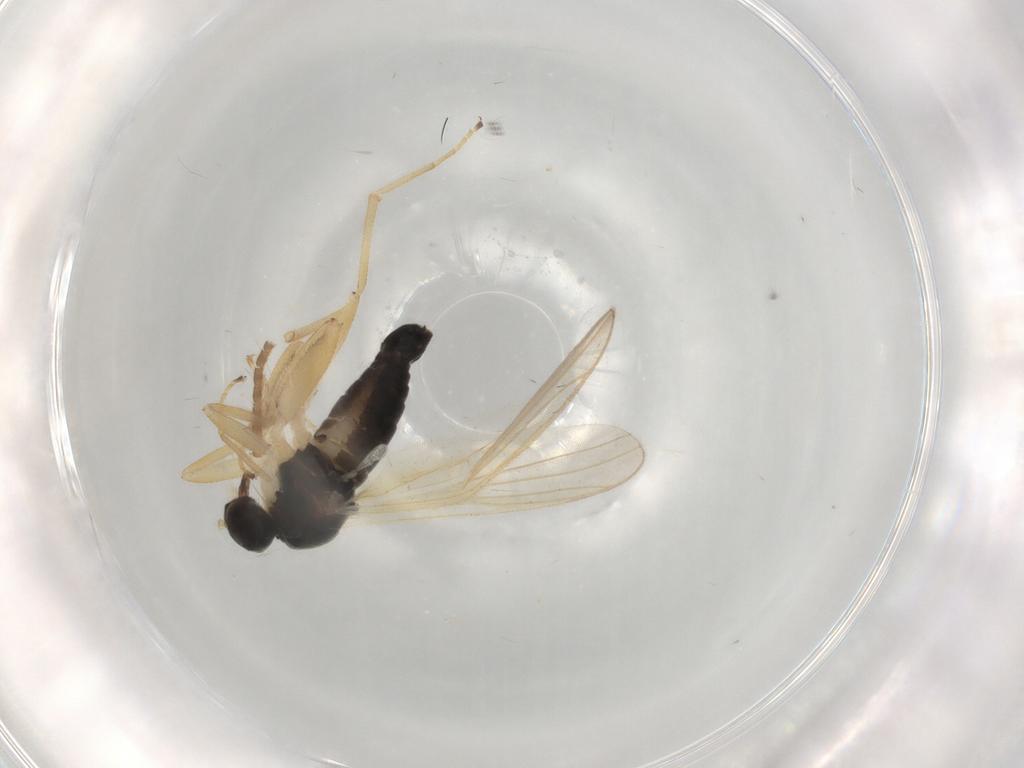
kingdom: Animalia
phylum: Arthropoda
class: Insecta
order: Diptera
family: Hybotidae
